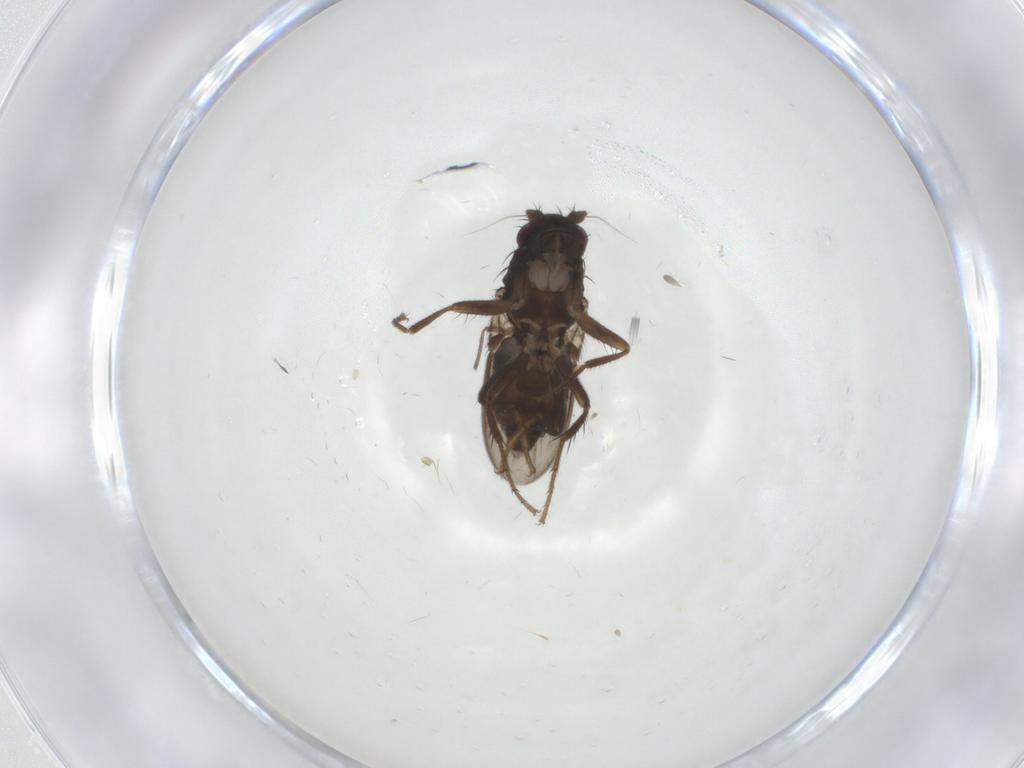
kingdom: Animalia
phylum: Arthropoda
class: Insecta
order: Diptera
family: Sphaeroceridae
